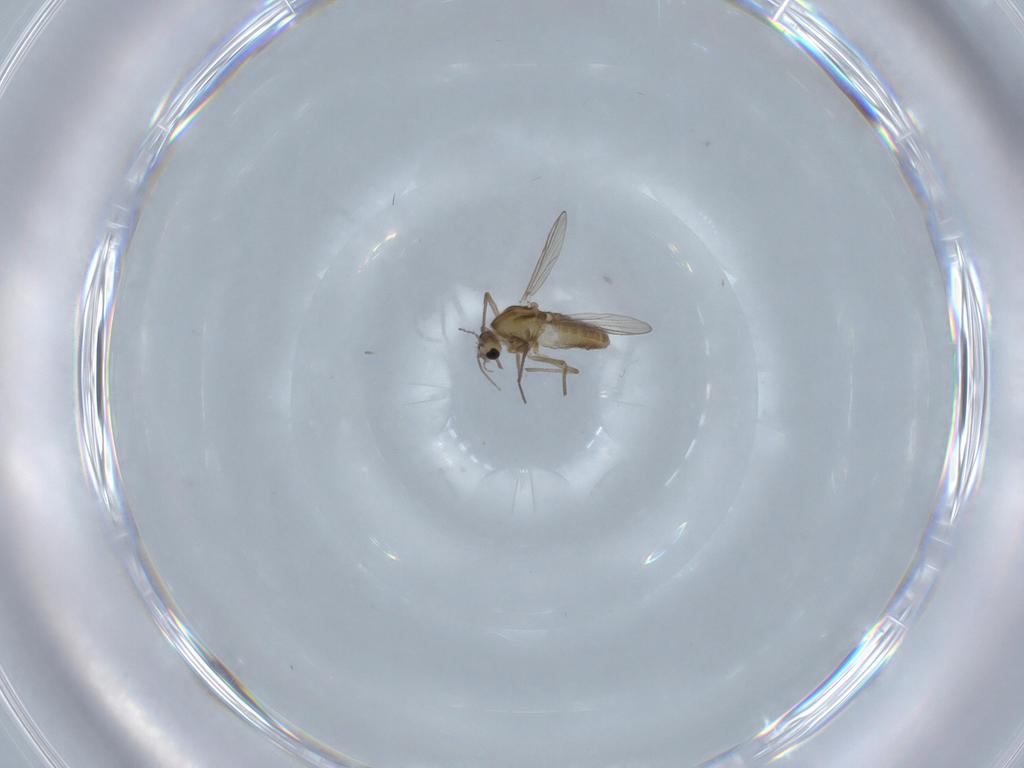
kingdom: Animalia
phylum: Arthropoda
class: Insecta
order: Diptera
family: Chironomidae
